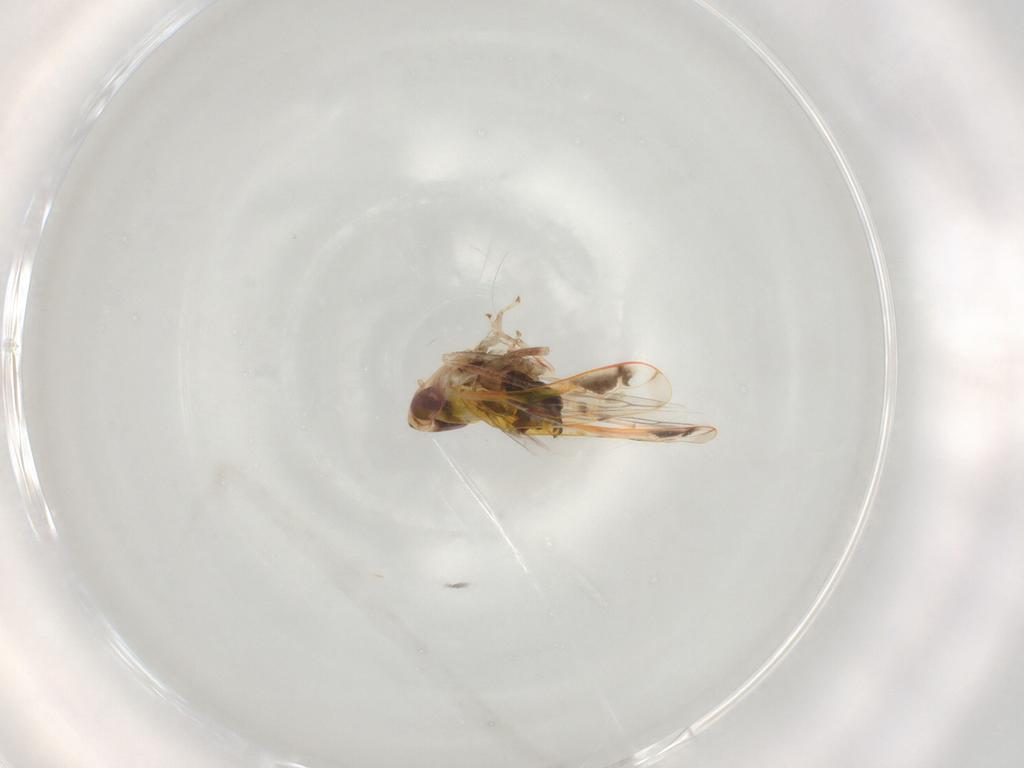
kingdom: Animalia
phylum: Arthropoda
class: Insecta
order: Hemiptera
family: Cicadellidae
